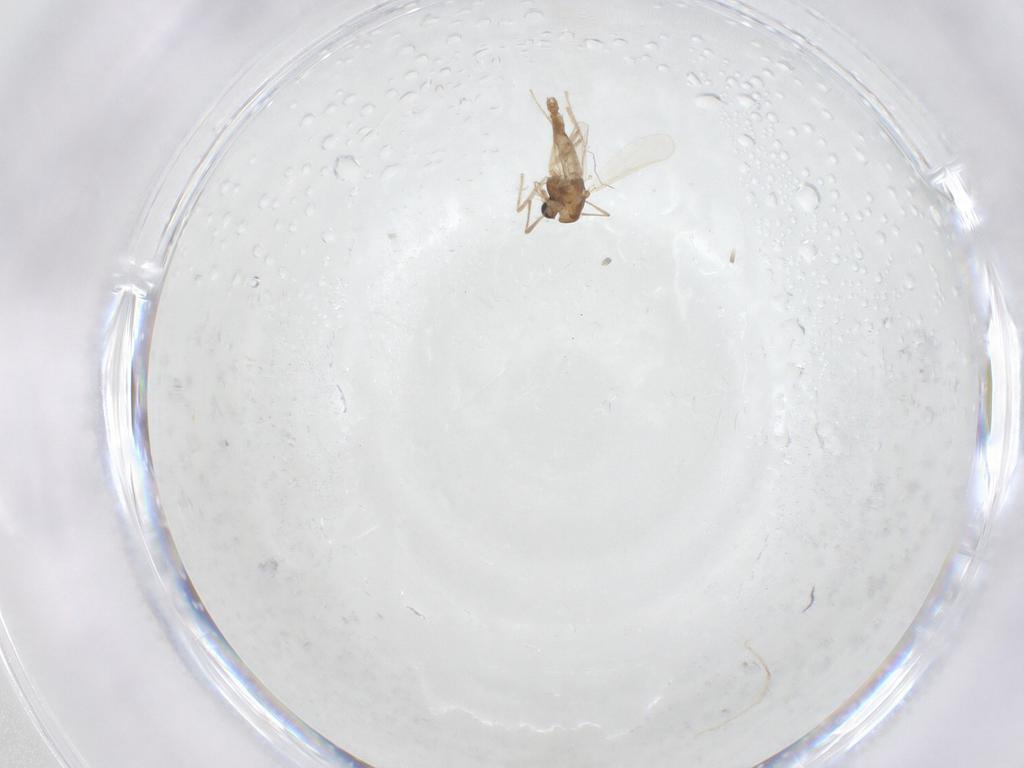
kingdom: Animalia
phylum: Arthropoda
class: Insecta
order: Diptera
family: Chironomidae
